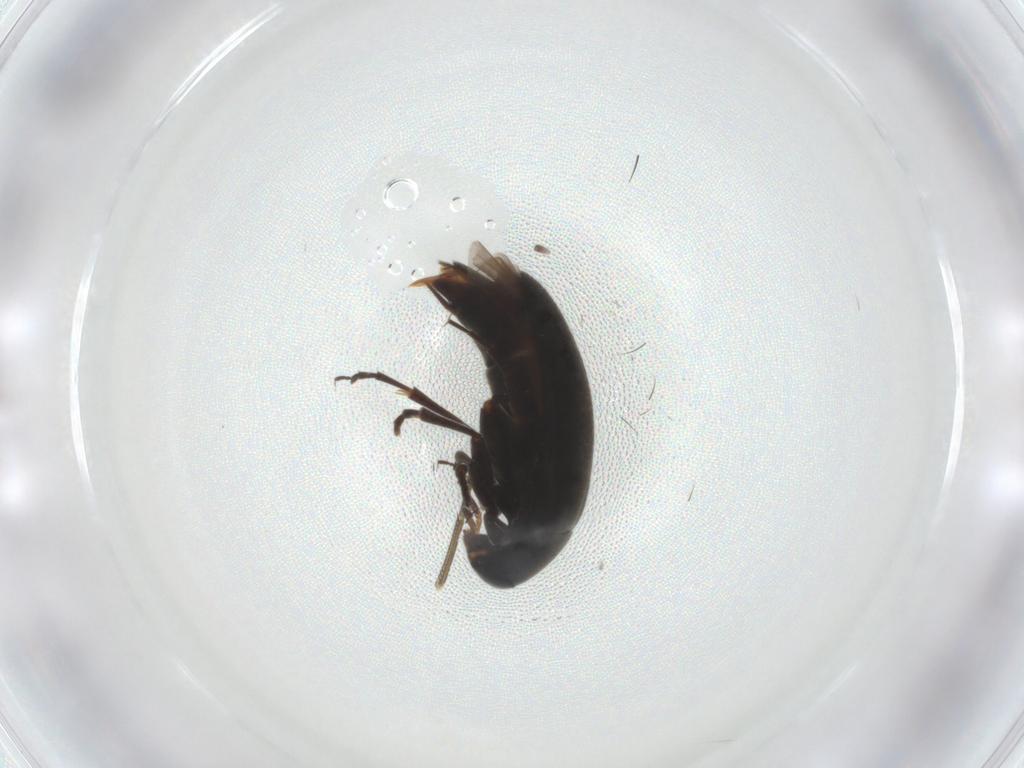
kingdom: Animalia
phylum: Arthropoda
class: Insecta
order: Coleoptera
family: Scraptiidae
